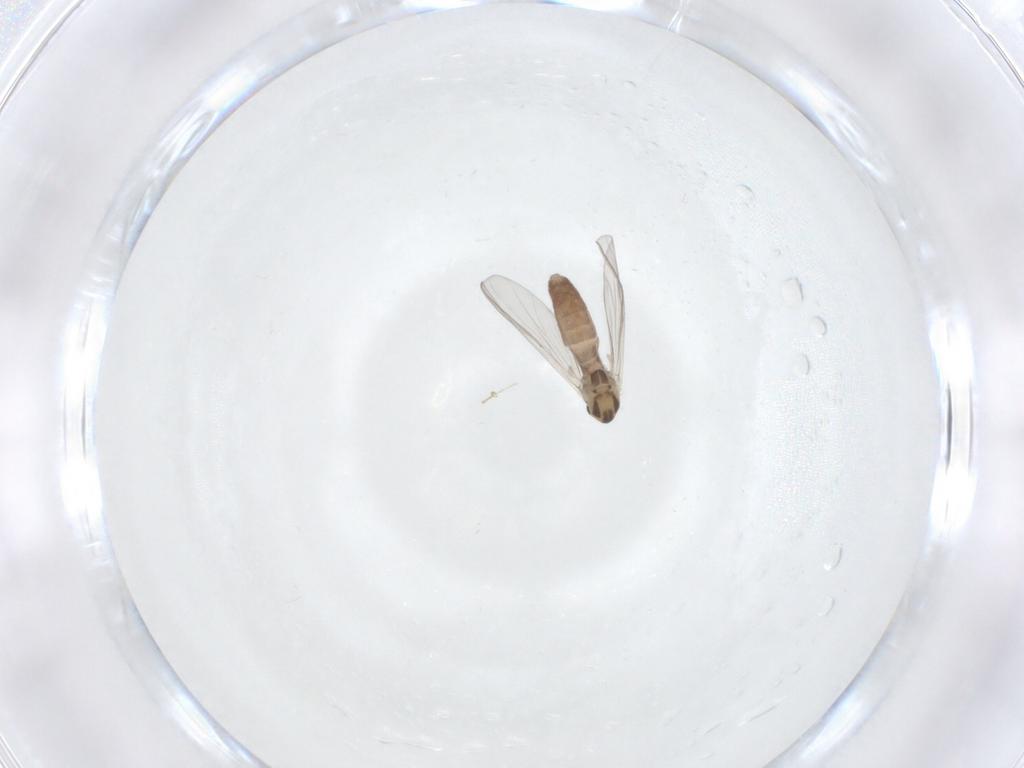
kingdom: Animalia
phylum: Arthropoda
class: Insecta
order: Diptera
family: Chironomidae
